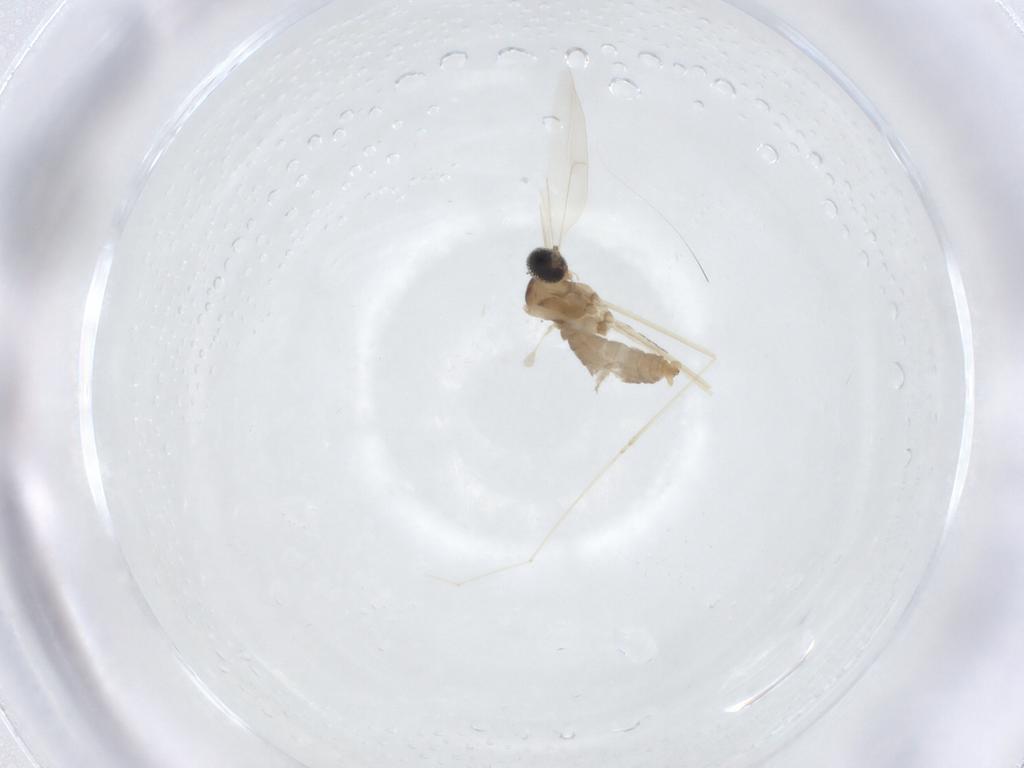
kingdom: Animalia
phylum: Arthropoda
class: Insecta
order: Diptera
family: Cecidomyiidae
